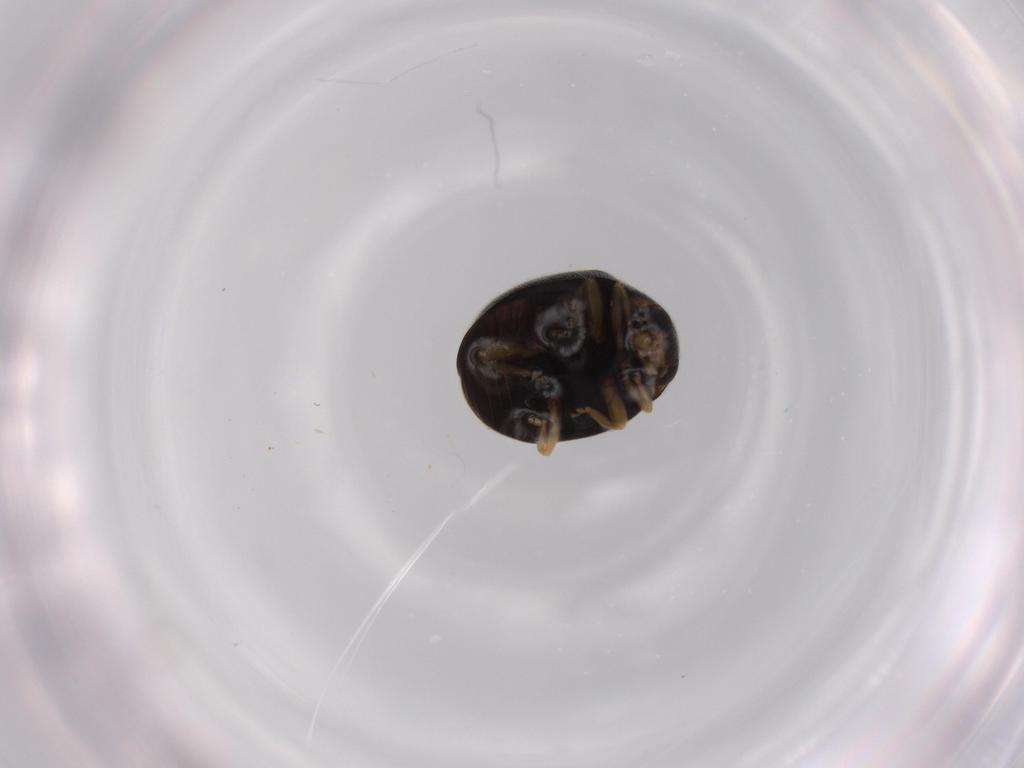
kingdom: Animalia
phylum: Arthropoda
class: Insecta
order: Coleoptera
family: Coccinellidae
